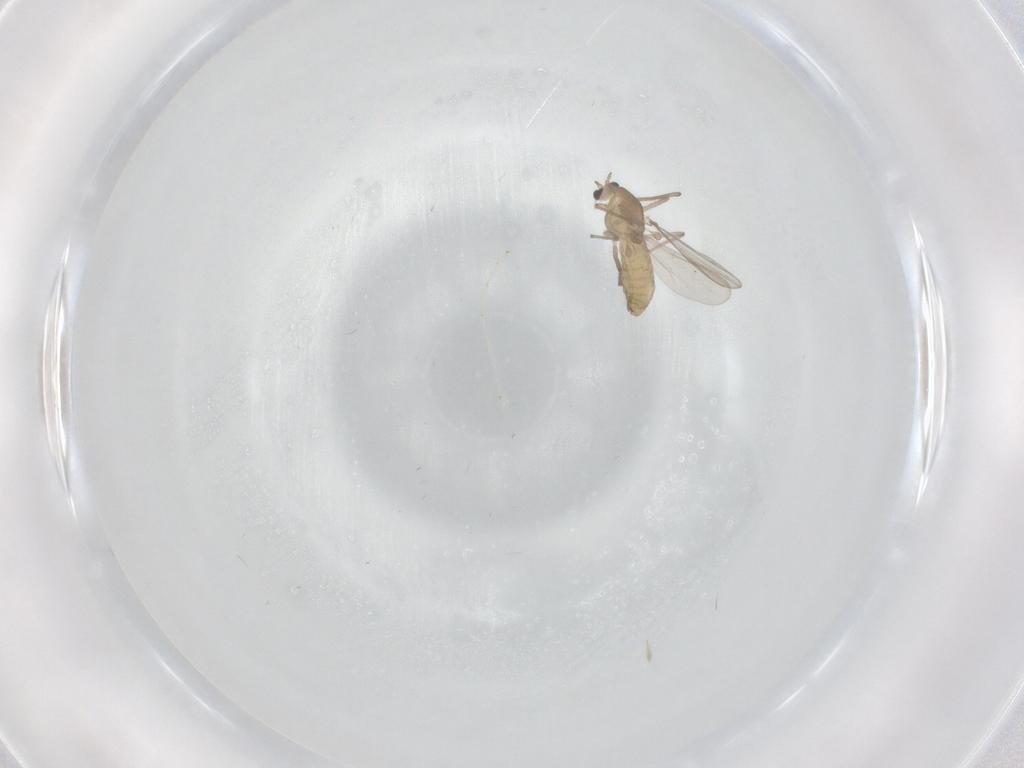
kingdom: Animalia
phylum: Arthropoda
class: Insecta
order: Diptera
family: Chironomidae
